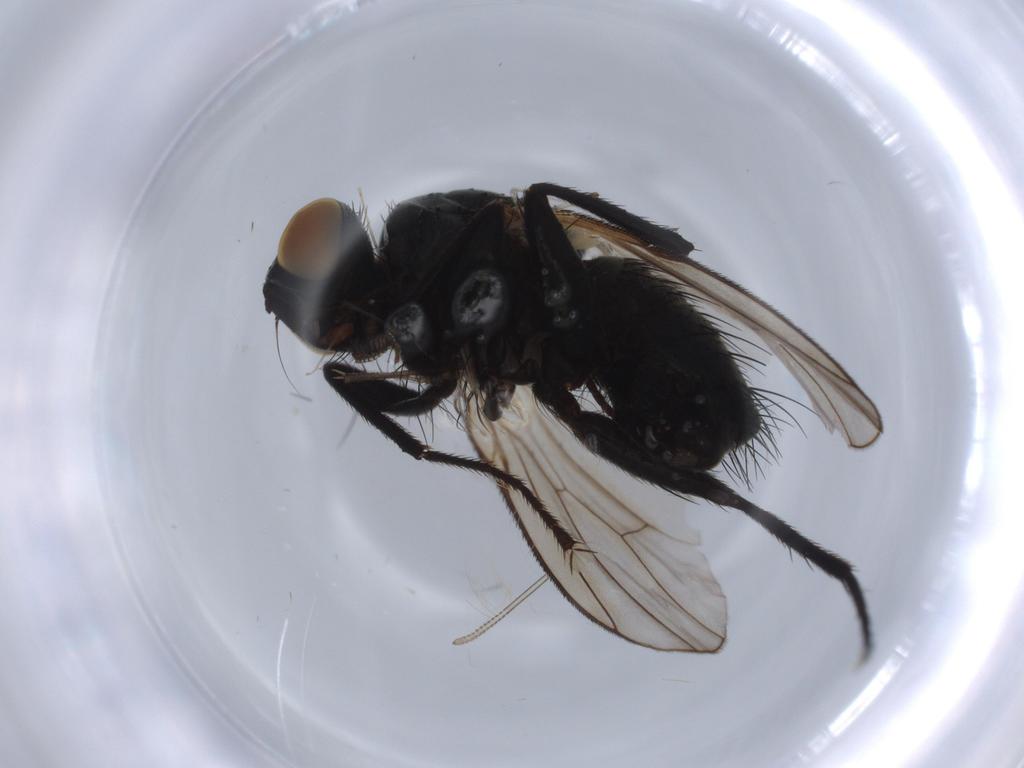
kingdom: Animalia
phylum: Arthropoda
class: Insecta
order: Diptera
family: Muscidae
